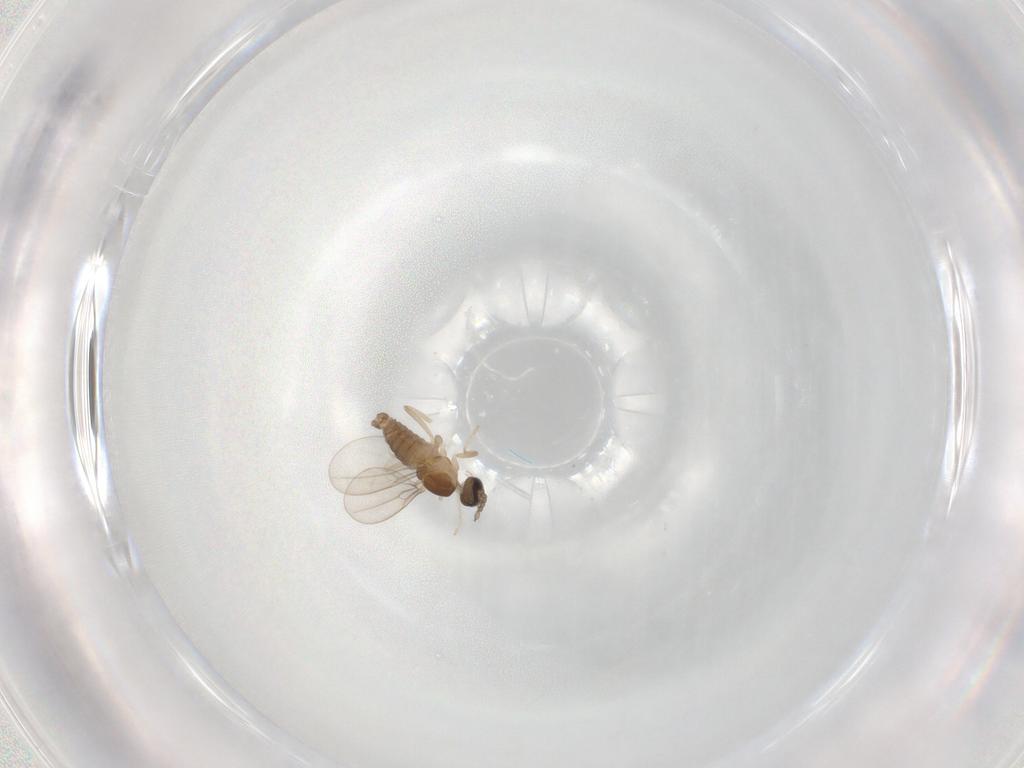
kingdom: Animalia
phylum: Arthropoda
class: Insecta
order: Diptera
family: Cecidomyiidae
